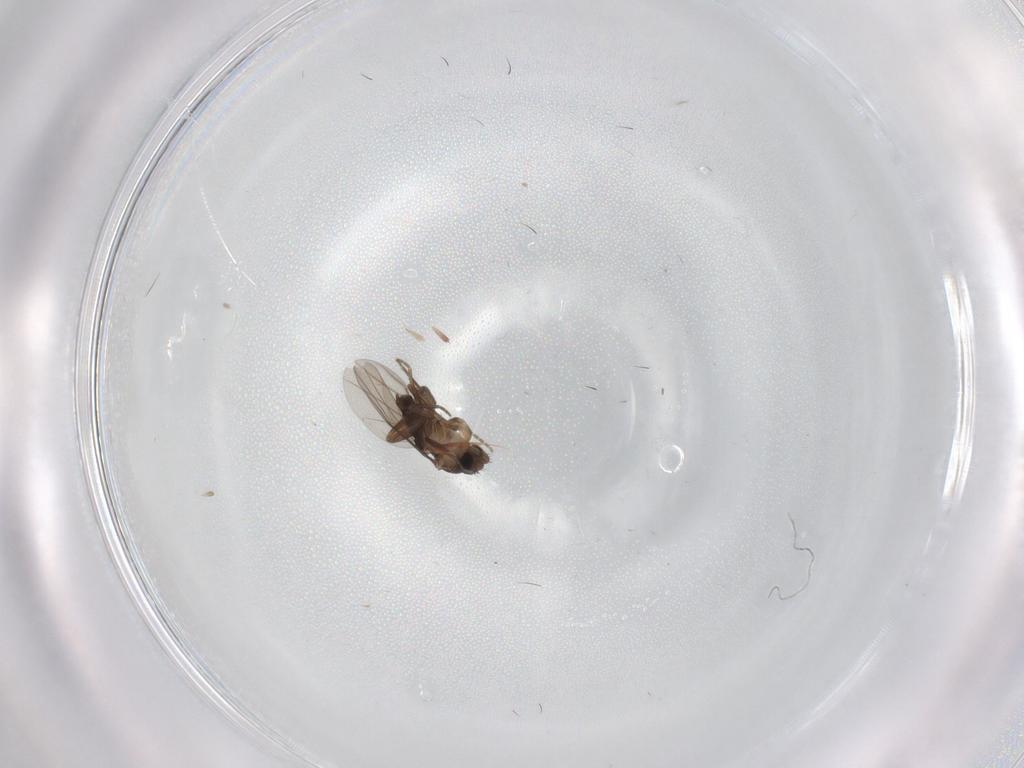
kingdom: Animalia
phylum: Arthropoda
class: Insecta
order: Diptera
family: Cecidomyiidae
